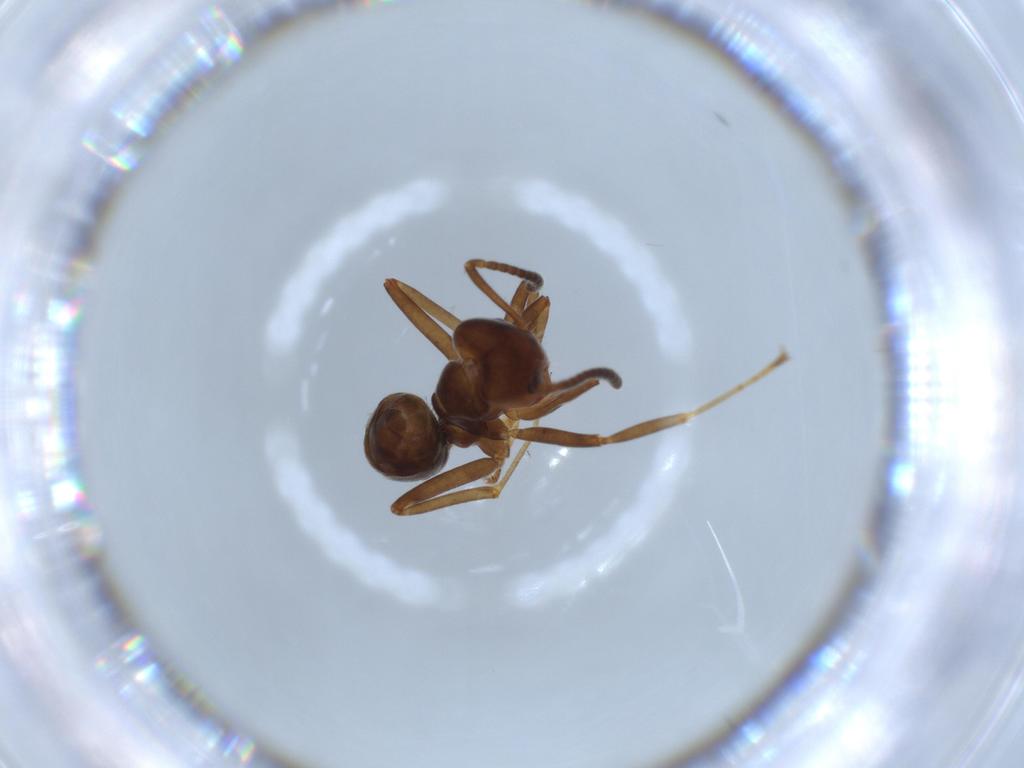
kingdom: Animalia
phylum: Arthropoda
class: Insecta
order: Hymenoptera
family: Formicidae
